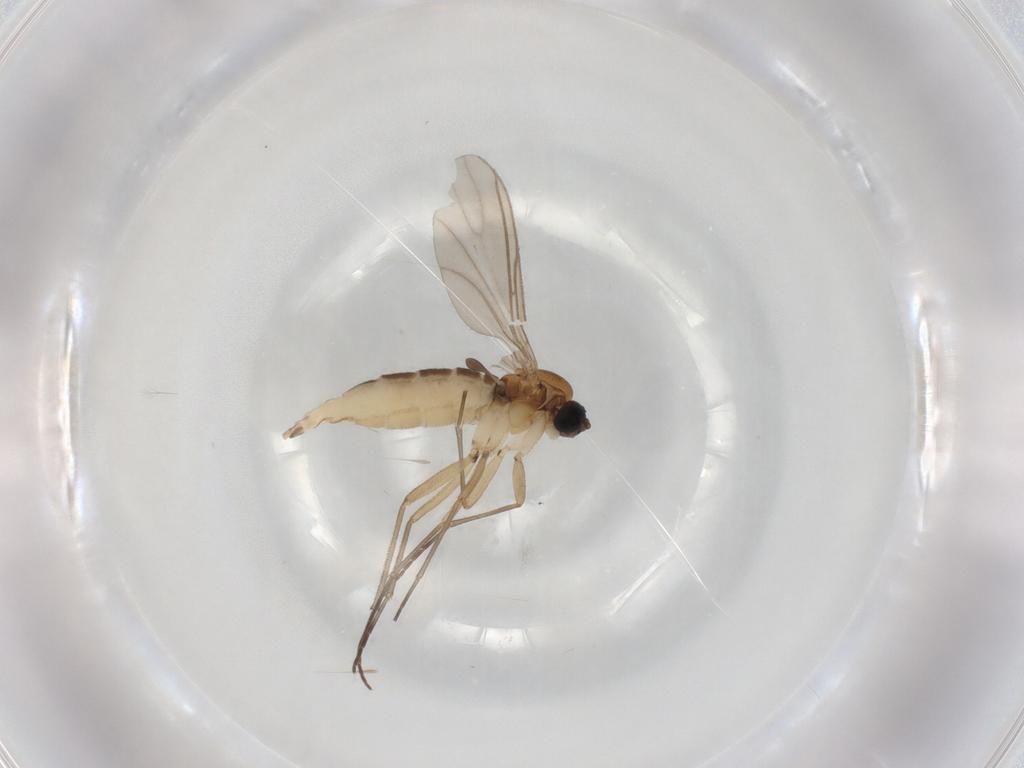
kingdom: Animalia
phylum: Arthropoda
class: Insecta
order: Diptera
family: Sciaridae
